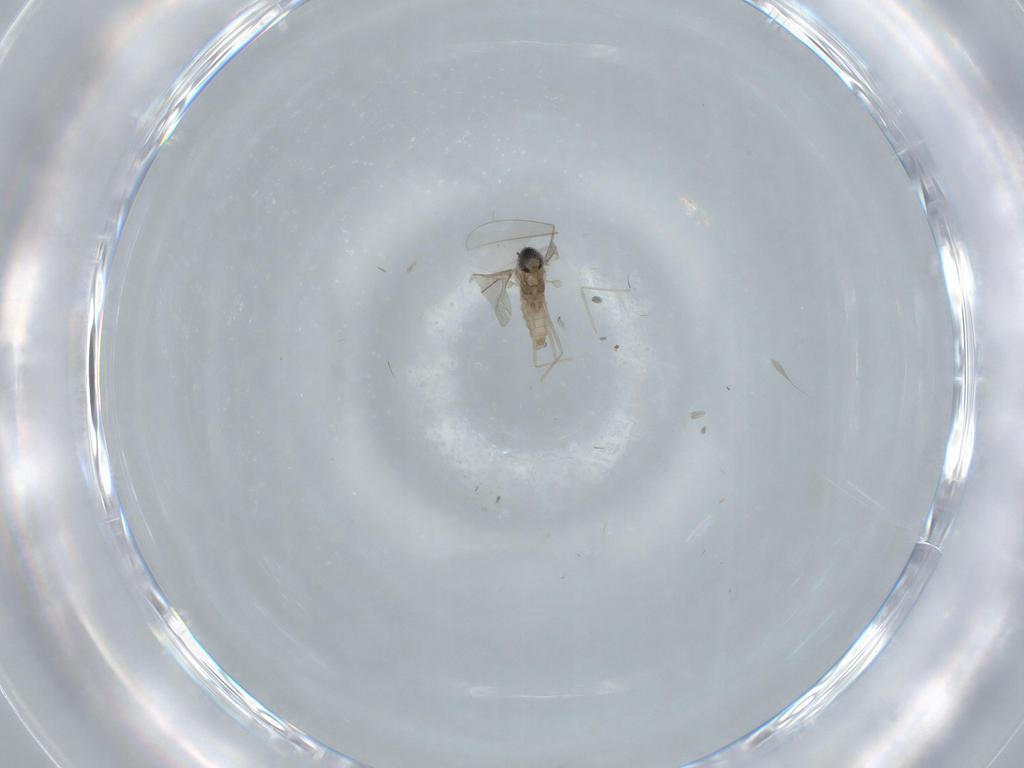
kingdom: Animalia
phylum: Arthropoda
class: Insecta
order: Diptera
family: Cecidomyiidae
